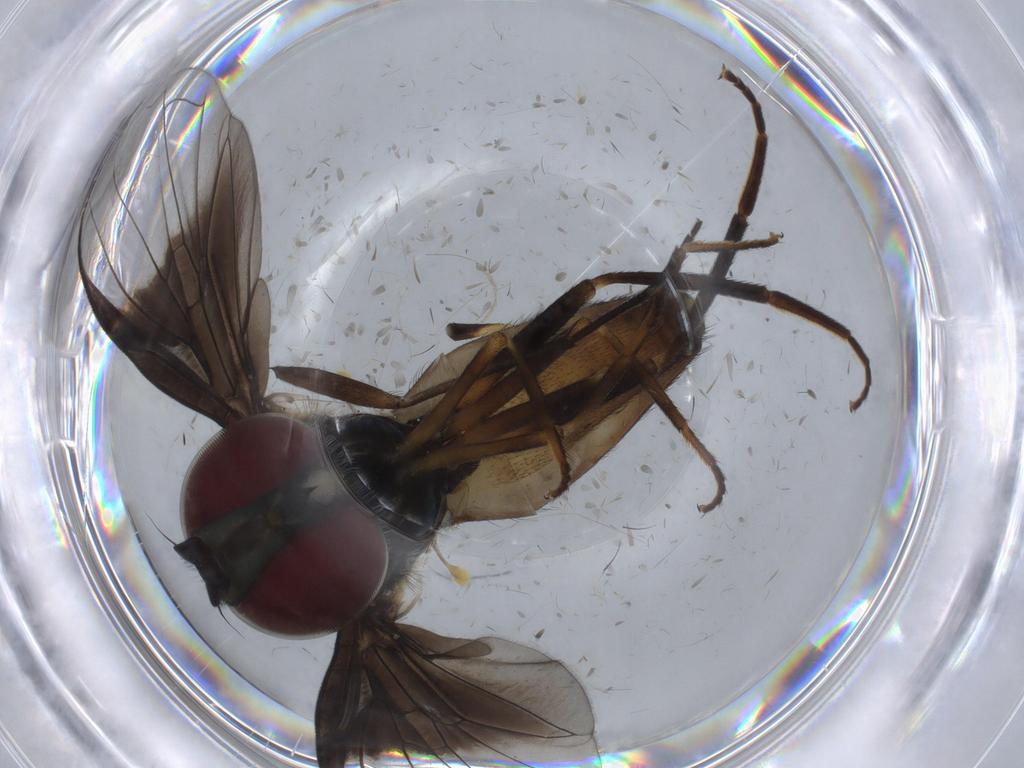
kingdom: Animalia
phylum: Arthropoda
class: Insecta
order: Diptera
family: Sciaridae
